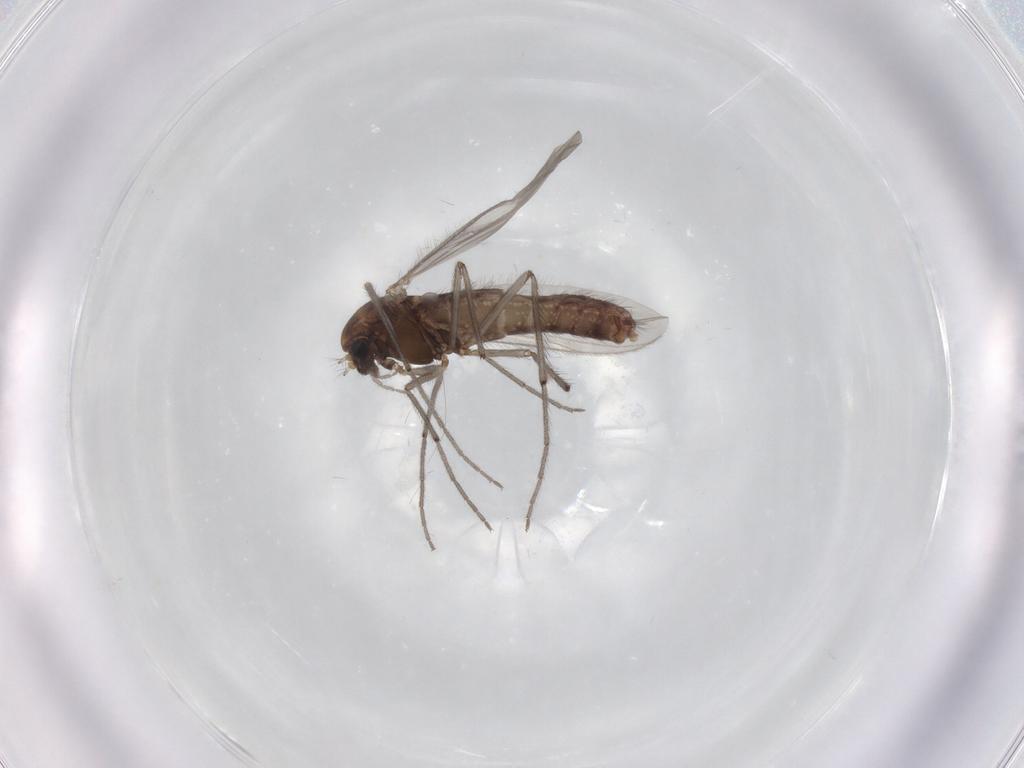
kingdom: Animalia
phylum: Arthropoda
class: Insecta
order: Diptera
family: Chironomidae
